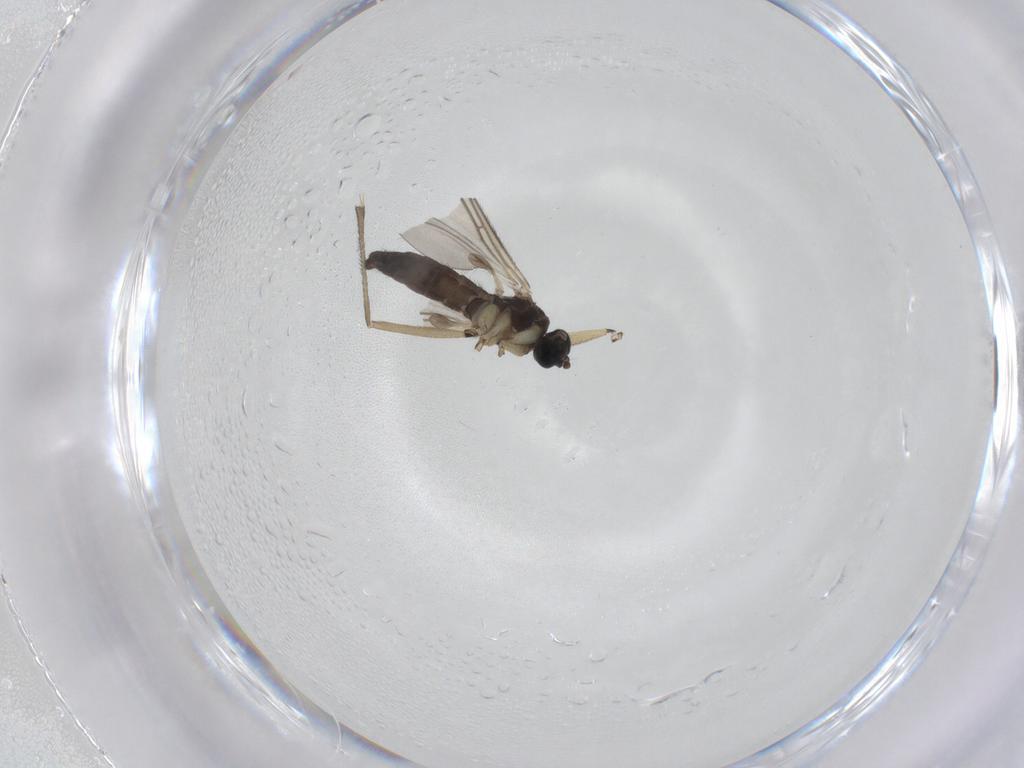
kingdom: Animalia
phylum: Arthropoda
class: Insecta
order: Diptera
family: Sciaridae
